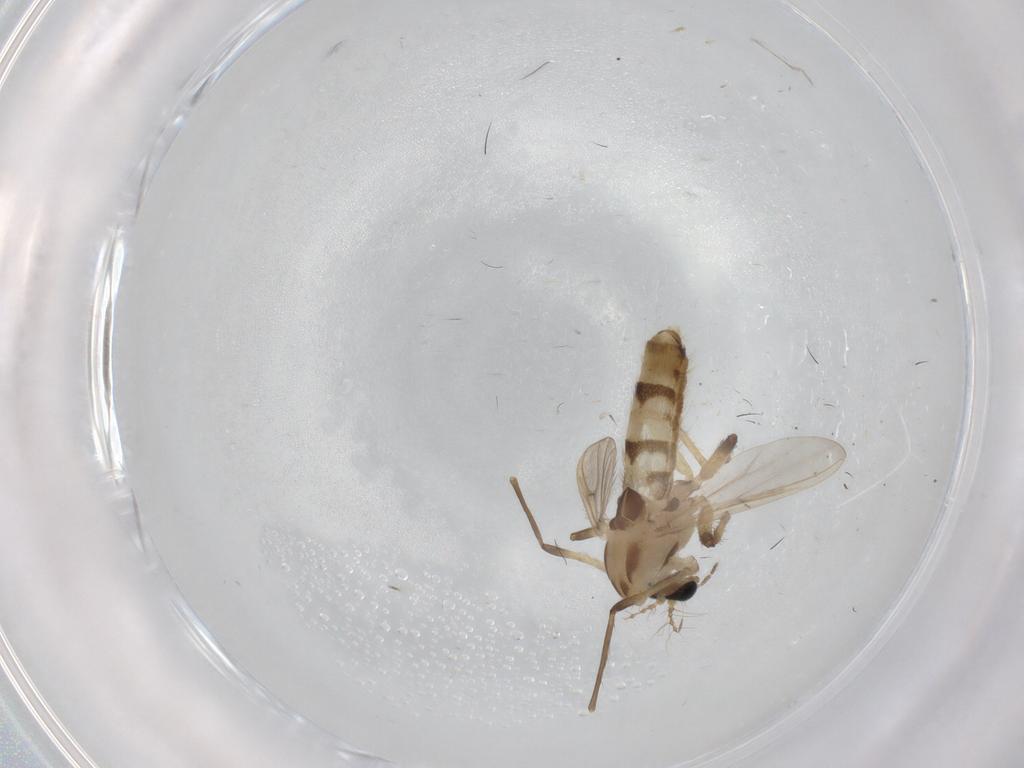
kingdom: Animalia
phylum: Arthropoda
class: Insecta
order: Diptera
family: Chironomidae
